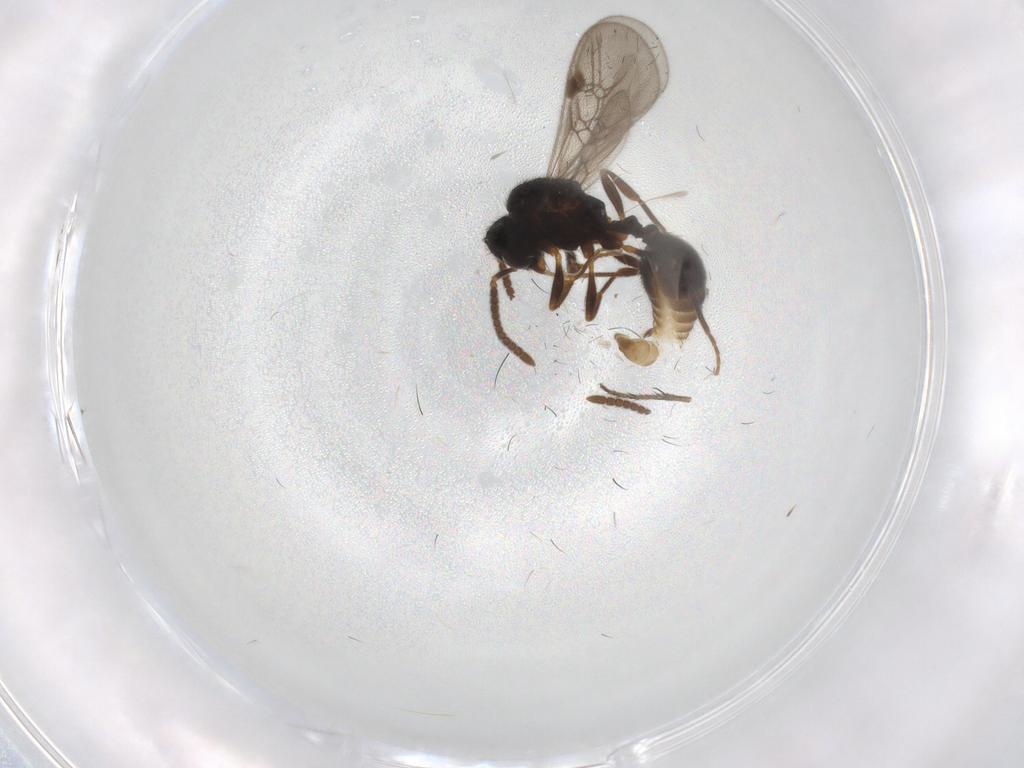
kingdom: Animalia
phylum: Arthropoda
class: Insecta
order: Hymenoptera
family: Formicidae
